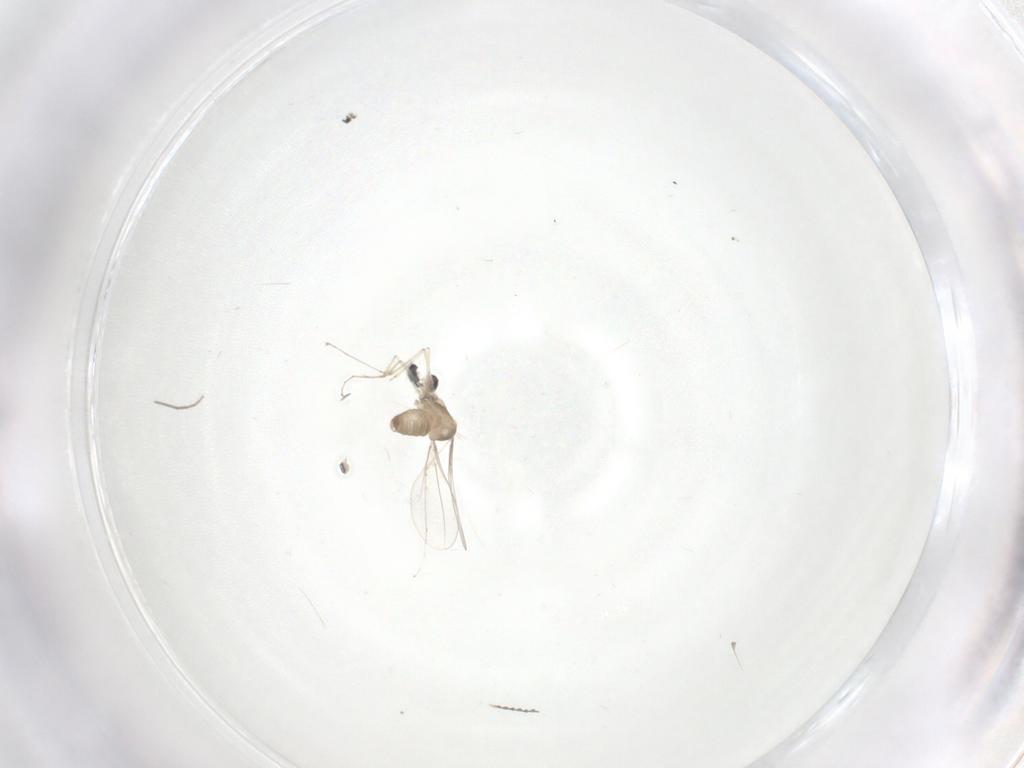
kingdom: Animalia
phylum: Arthropoda
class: Insecta
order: Diptera
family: Cecidomyiidae
